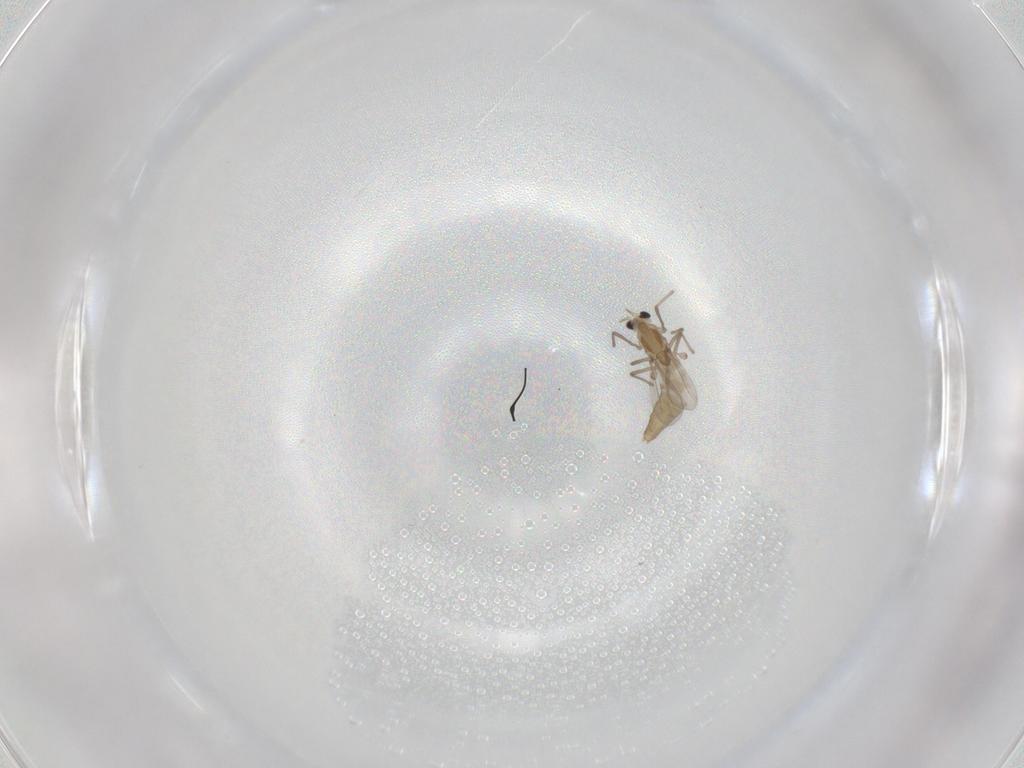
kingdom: Animalia
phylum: Arthropoda
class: Insecta
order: Diptera
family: Chironomidae
